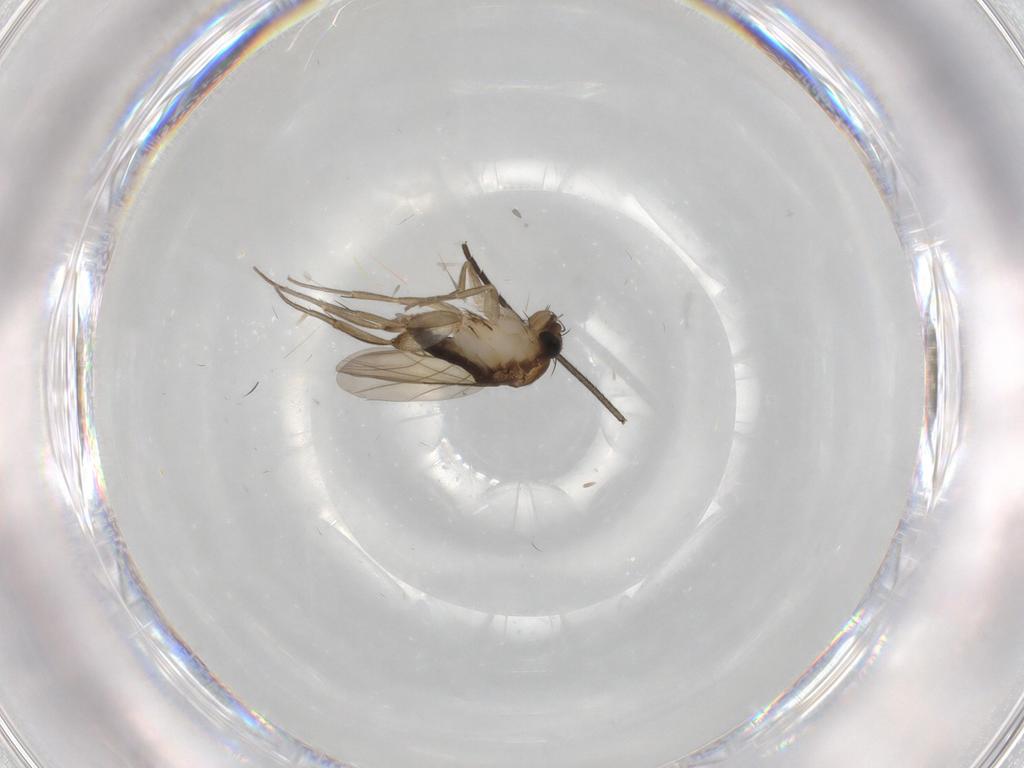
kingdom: Animalia
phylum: Arthropoda
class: Insecta
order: Diptera
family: Phoridae
